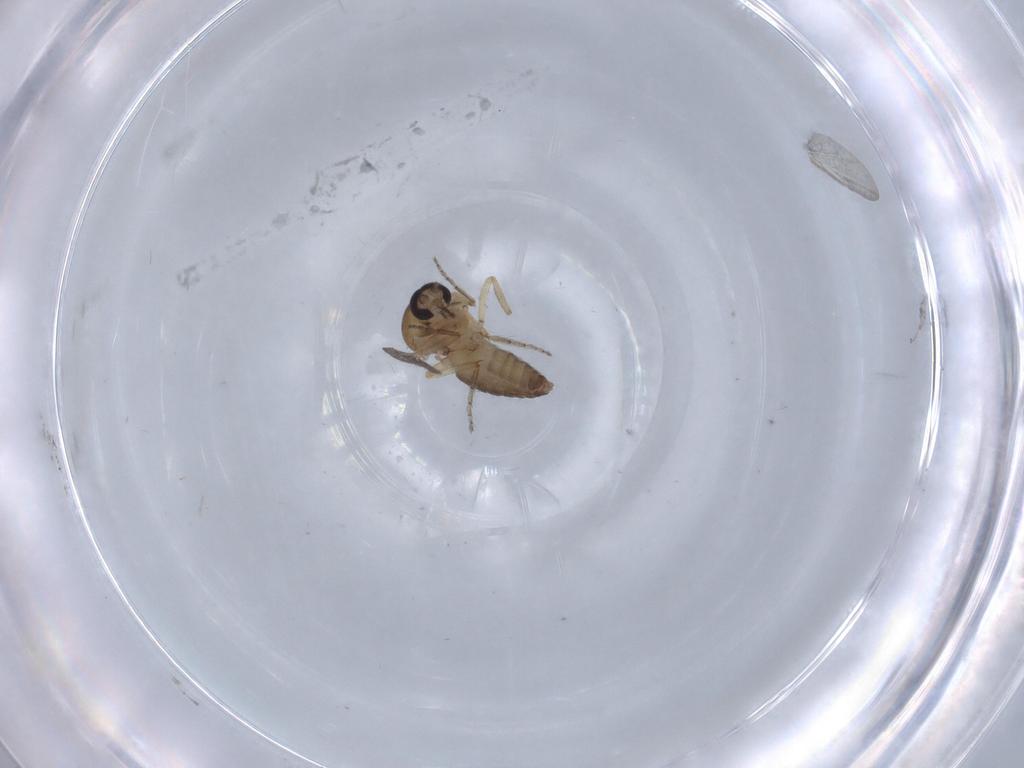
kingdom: Animalia
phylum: Arthropoda
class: Insecta
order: Diptera
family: Ceratopogonidae
